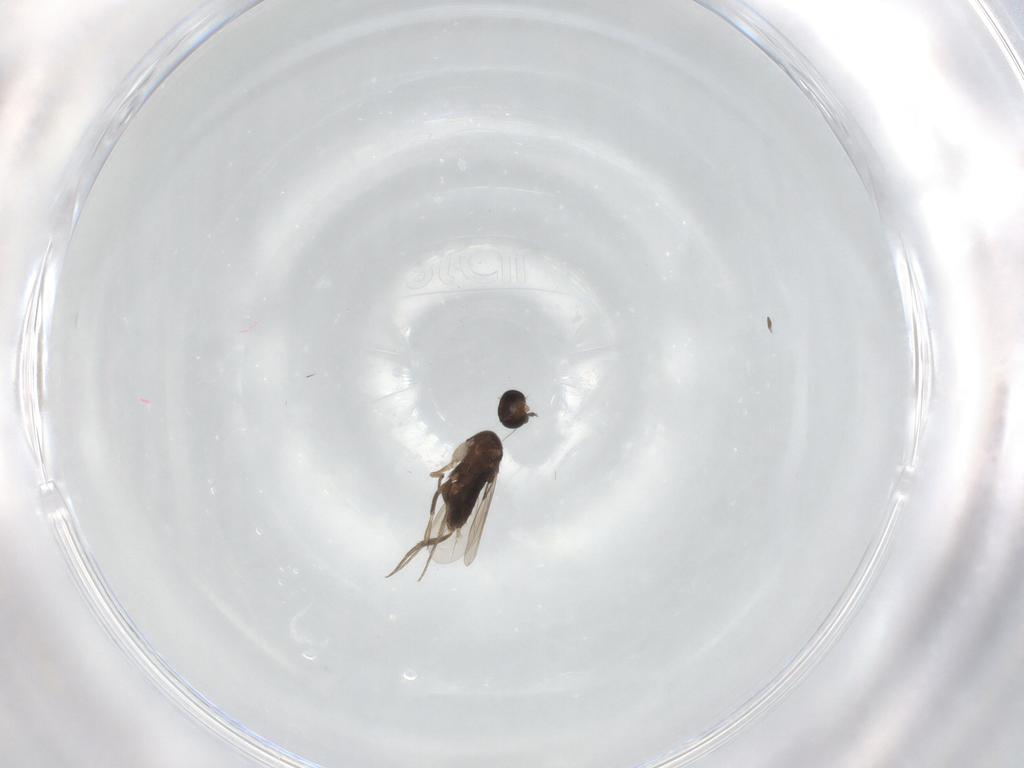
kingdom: Animalia
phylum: Arthropoda
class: Insecta
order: Diptera
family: Phoridae
